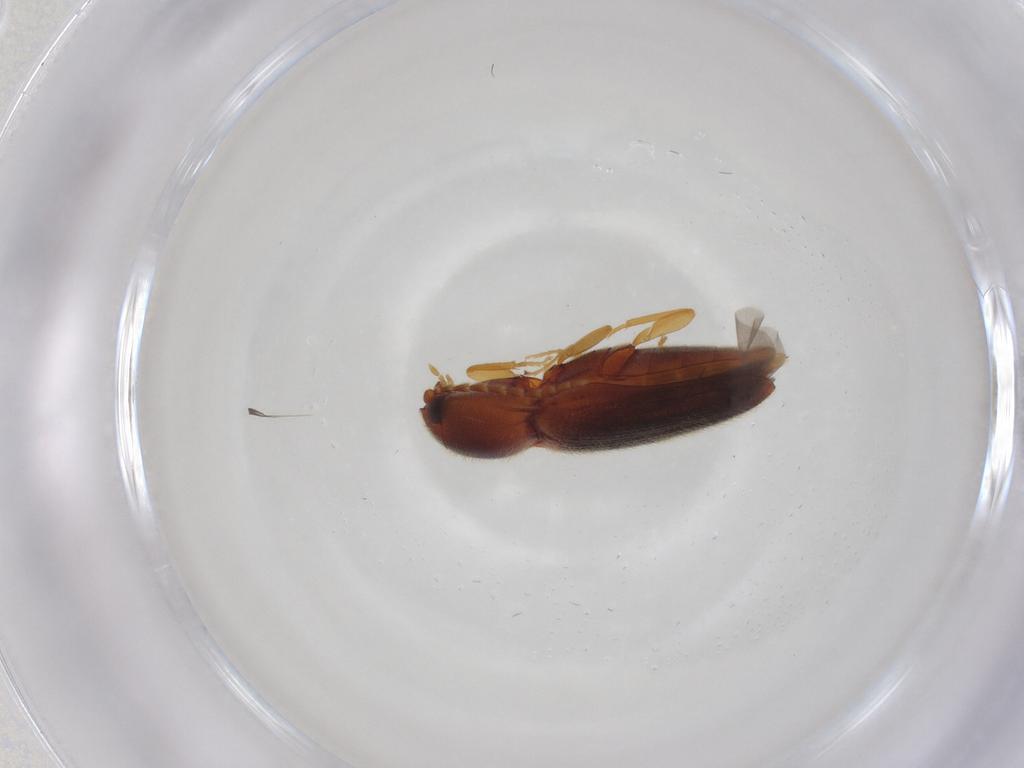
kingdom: Animalia
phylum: Arthropoda
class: Insecta
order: Coleoptera
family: Elateridae
